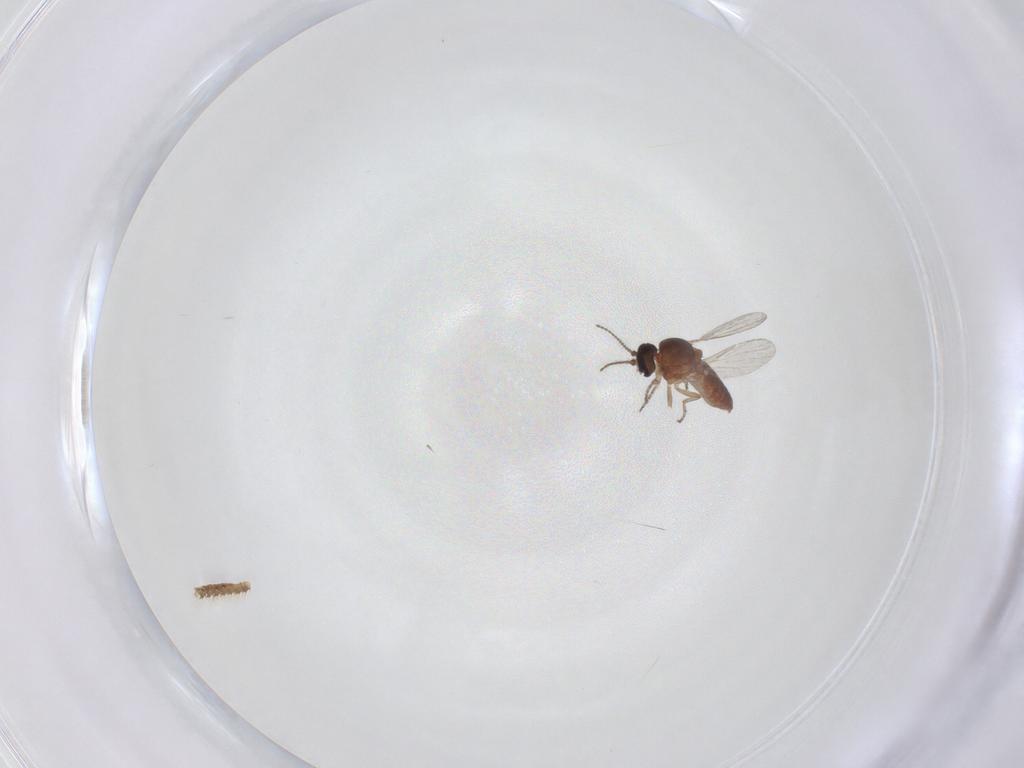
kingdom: Animalia
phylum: Arthropoda
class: Insecta
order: Diptera
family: Ceratopogonidae
